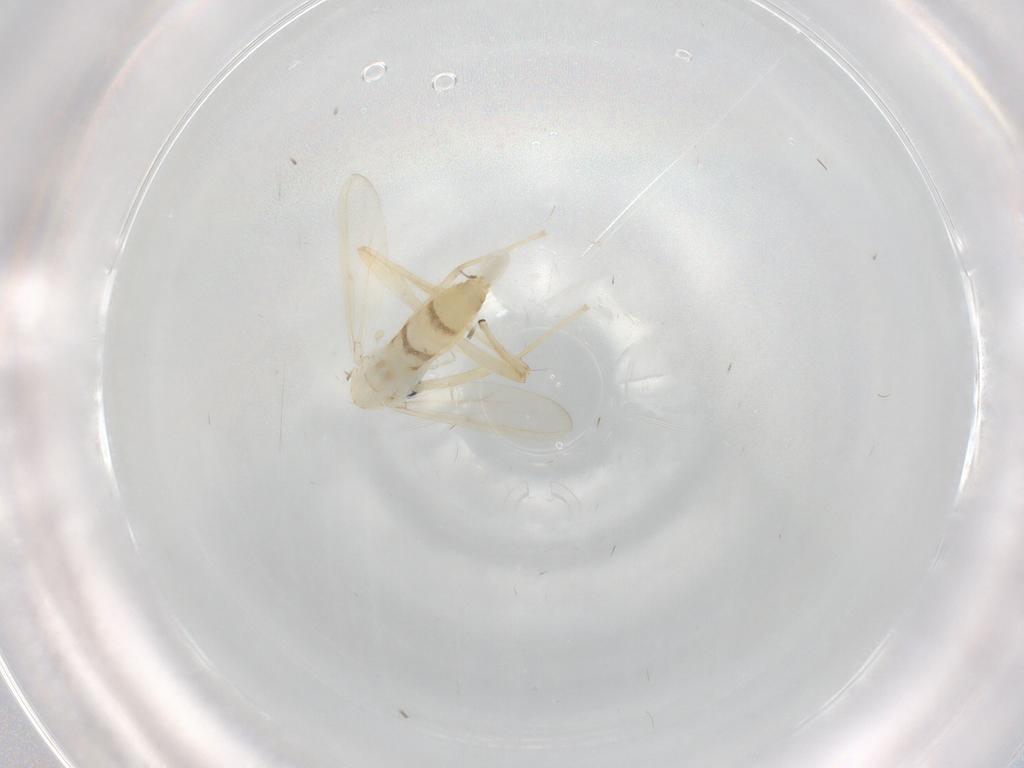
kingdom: Animalia
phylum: Arthropoda
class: Insecta
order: Diptera
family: Chironomidae
